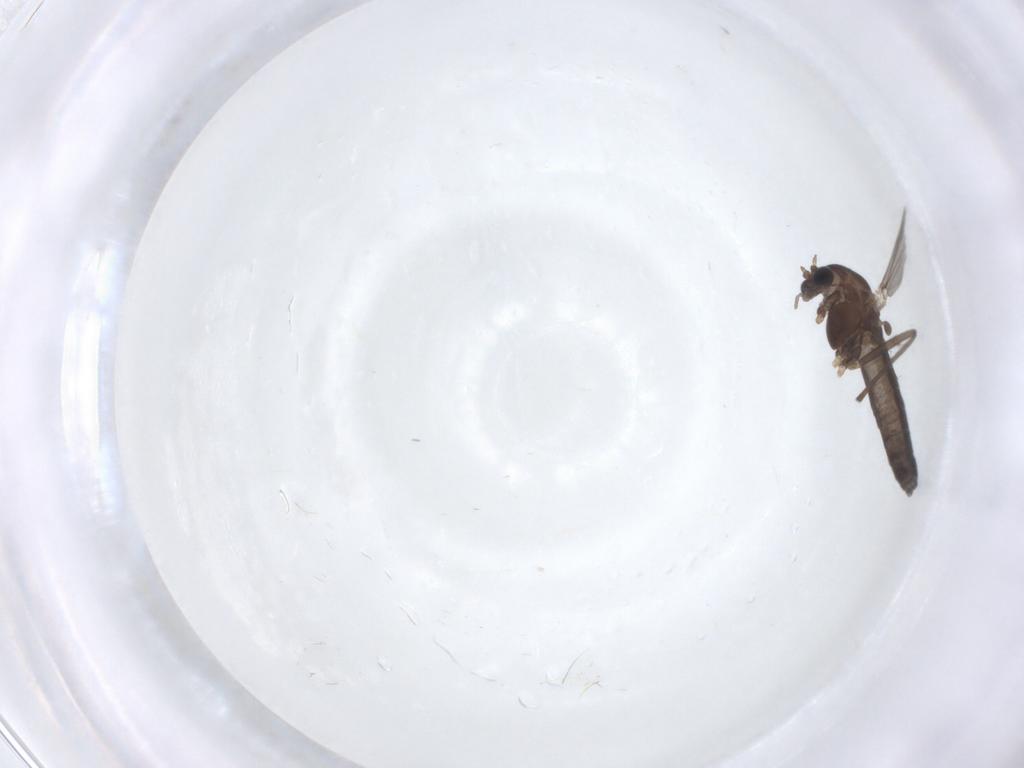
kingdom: Animalia
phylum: Arthropoda
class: Insecta
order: Diptera
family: Chironomidae
